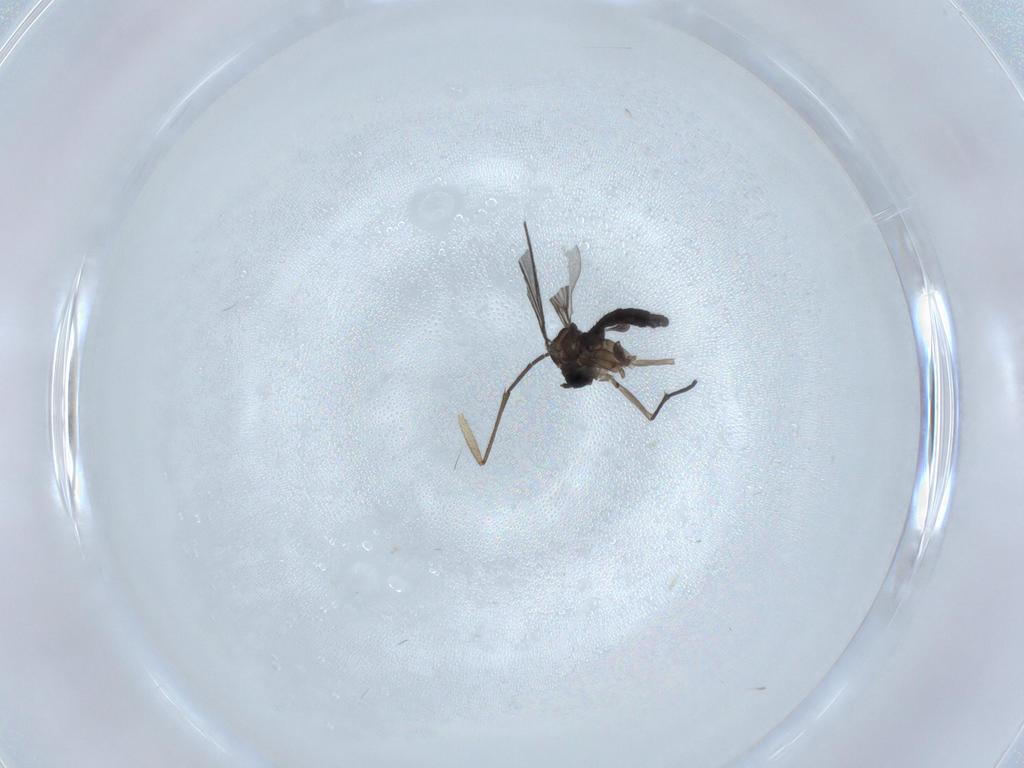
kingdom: Animalia
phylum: Arthropoda
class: Insecta
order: Diptera
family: Sciaridae
